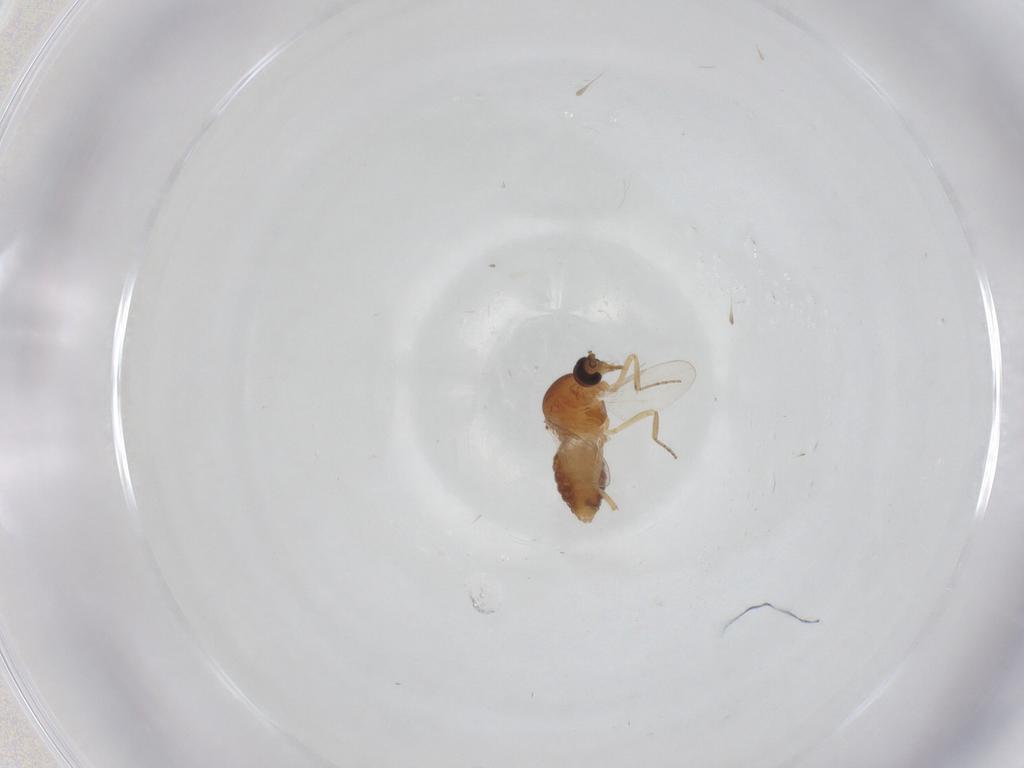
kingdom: Animalia
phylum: Arthropoda
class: Insecta
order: Diptera
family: Ceratopogonidae
